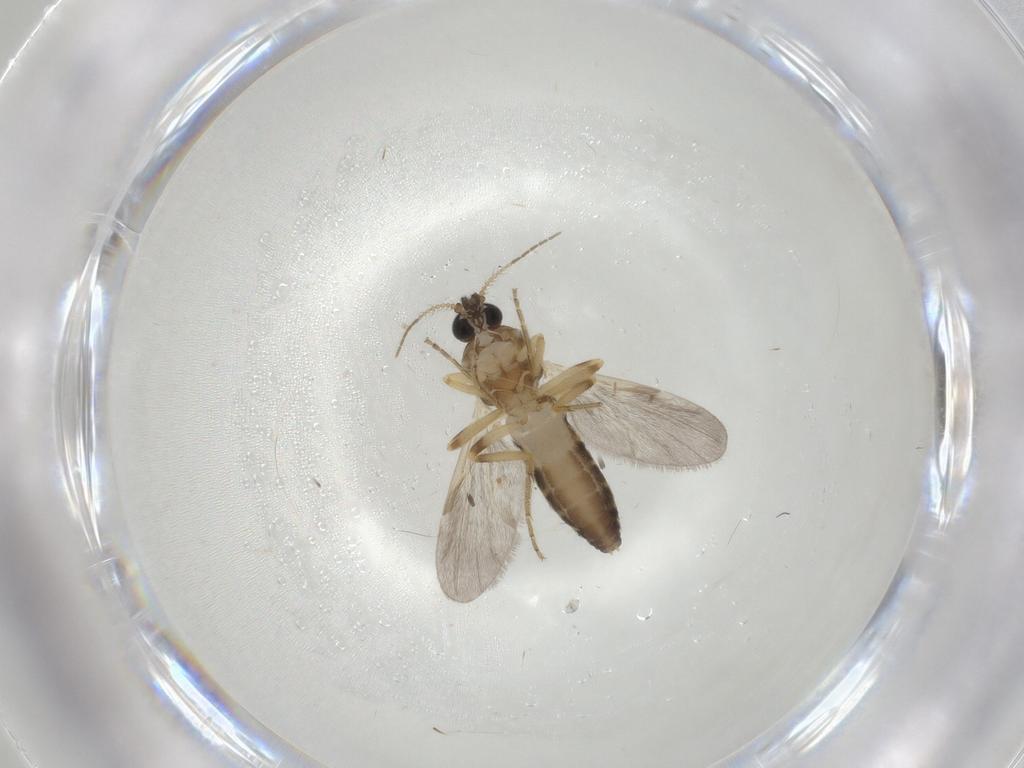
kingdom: Animalia
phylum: Arthropoda
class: Insecta
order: Diptera
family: Ceratopogonidae
